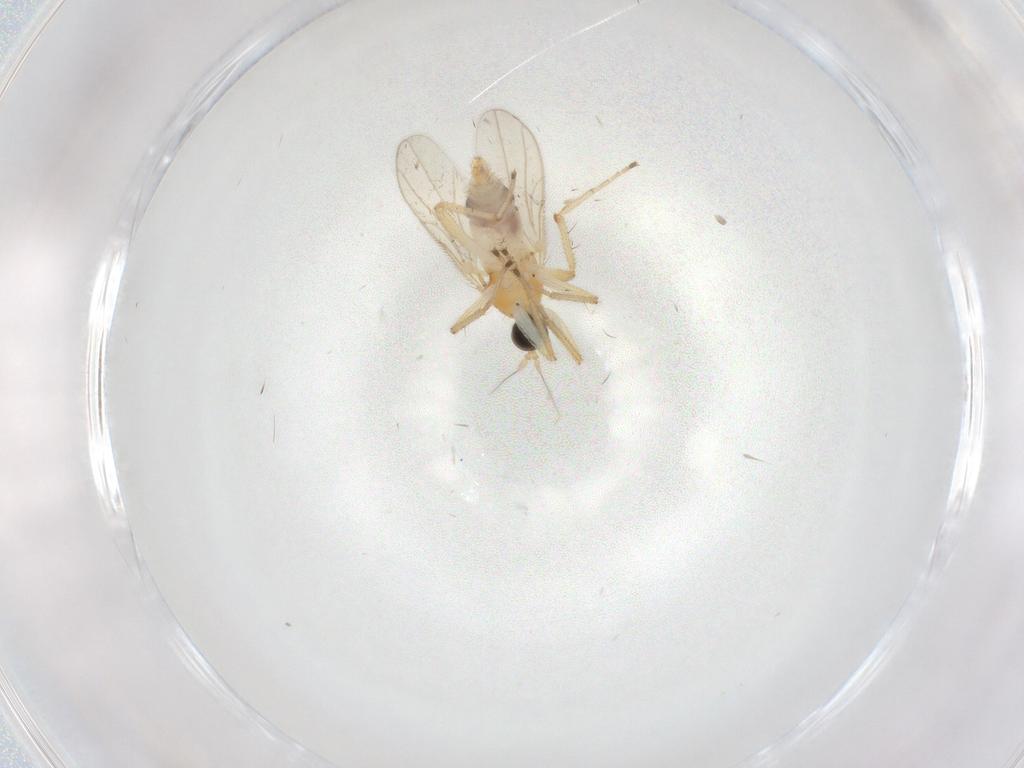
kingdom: Animalia
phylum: Arthropoda
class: Insecta
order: Diptera
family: Hybotidae
